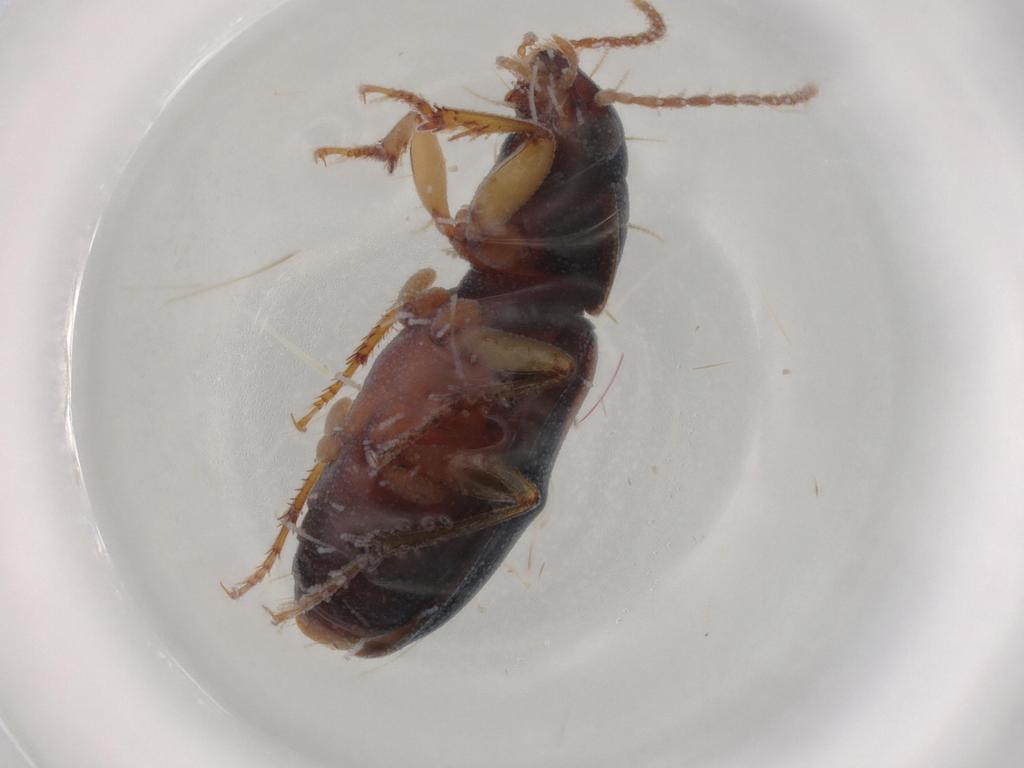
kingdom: Animalia
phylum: Arthropoda
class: Insecta
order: Coleoptera
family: Carabidae
